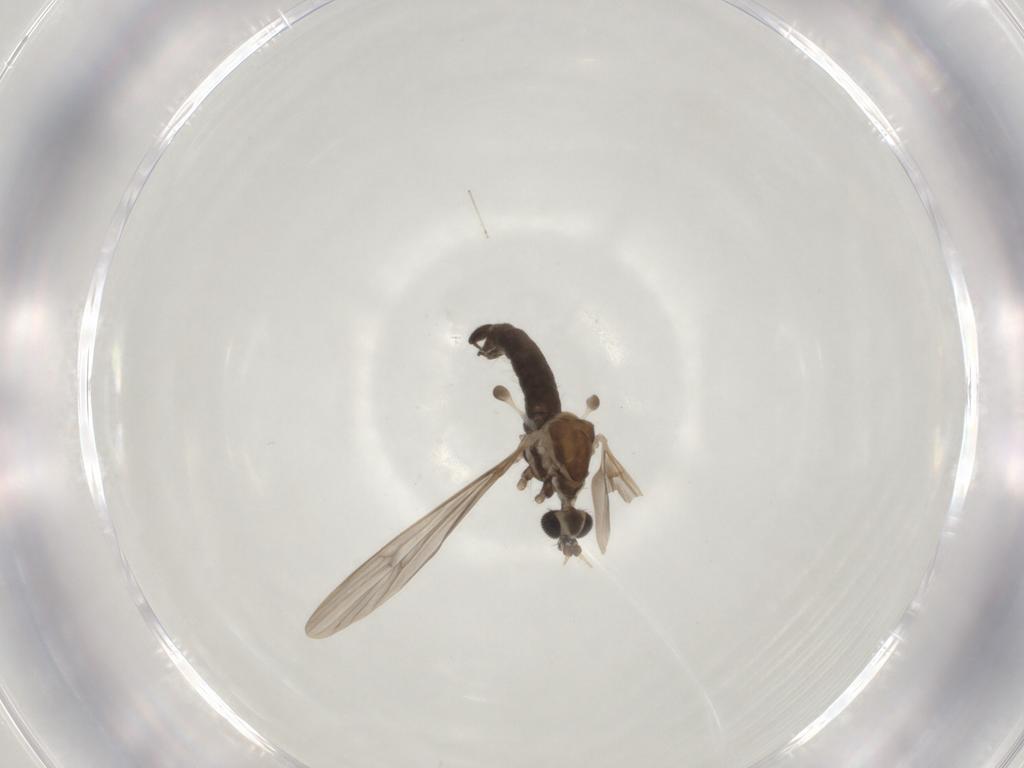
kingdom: Animalia
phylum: Arthropoda
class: Insecta
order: Diptera
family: Limoniidae
